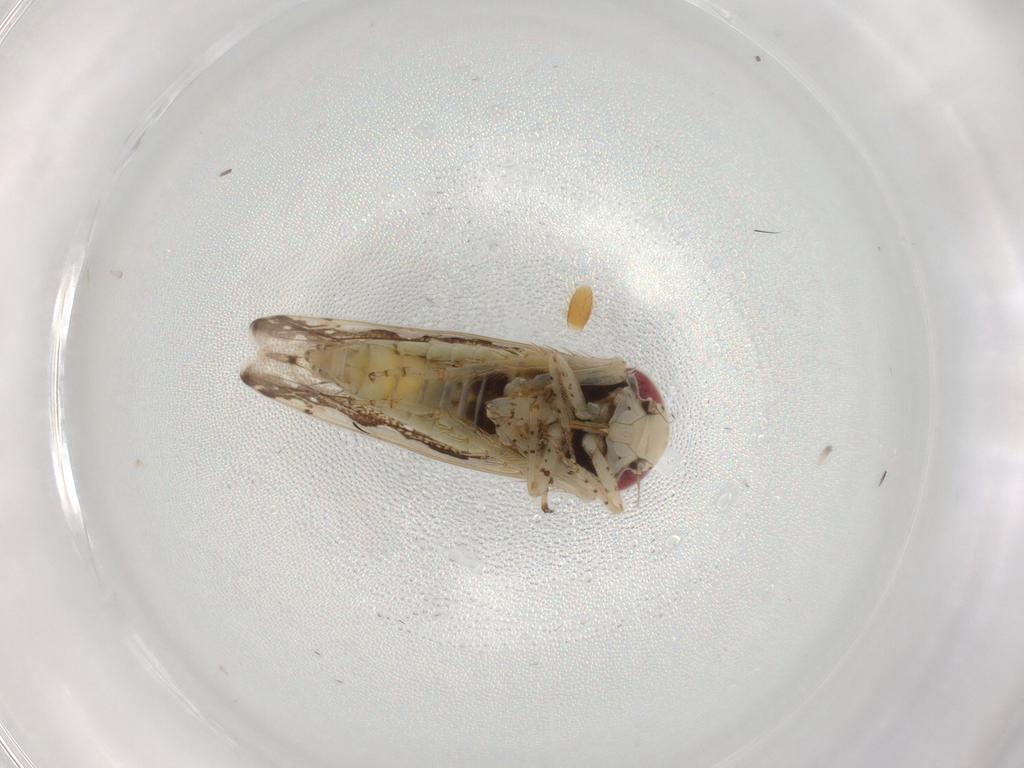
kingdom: Animalia
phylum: Arthropoda
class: Insecta
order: Hemiptera
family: Cicadellidae
